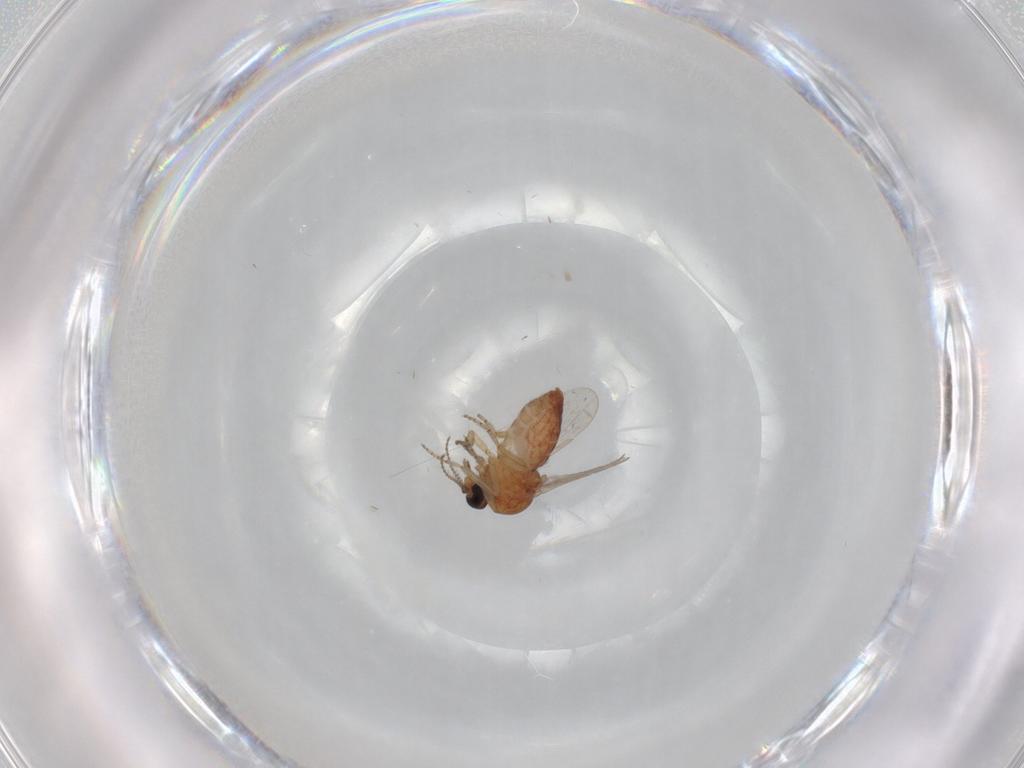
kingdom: Animalia
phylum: Arthropoda
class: Insecta
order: Diptera
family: Ceratopogonidae
